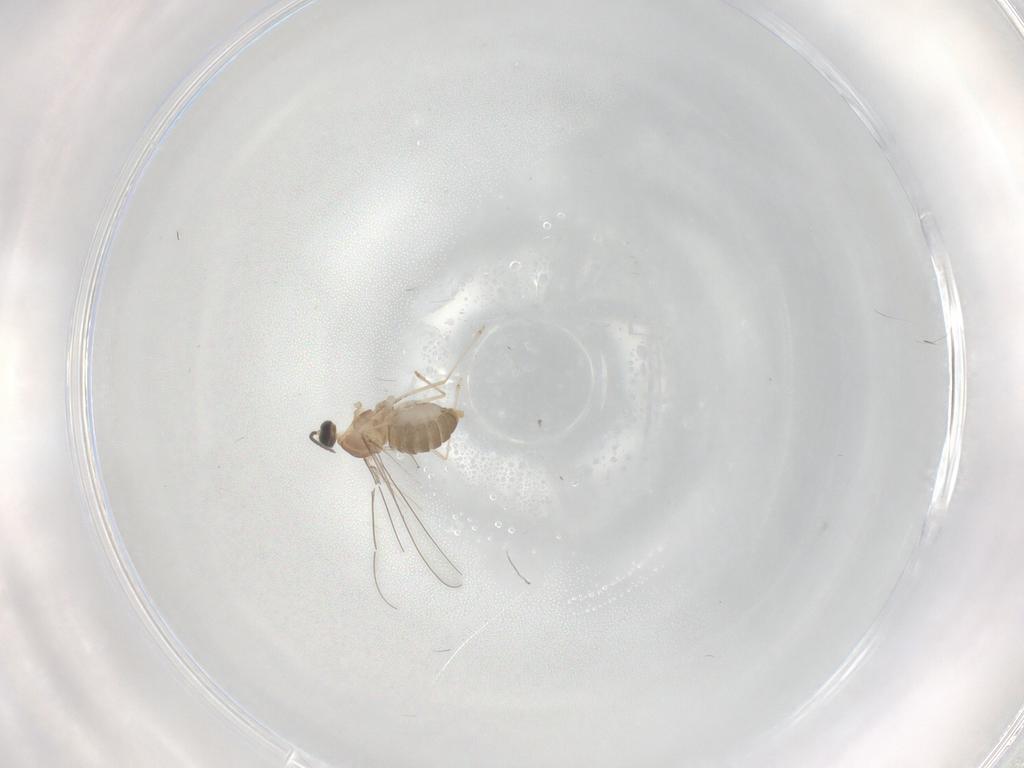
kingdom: Animalia
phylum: Arthropoda
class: Insecta
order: Diptera
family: Cecidomyiidae
